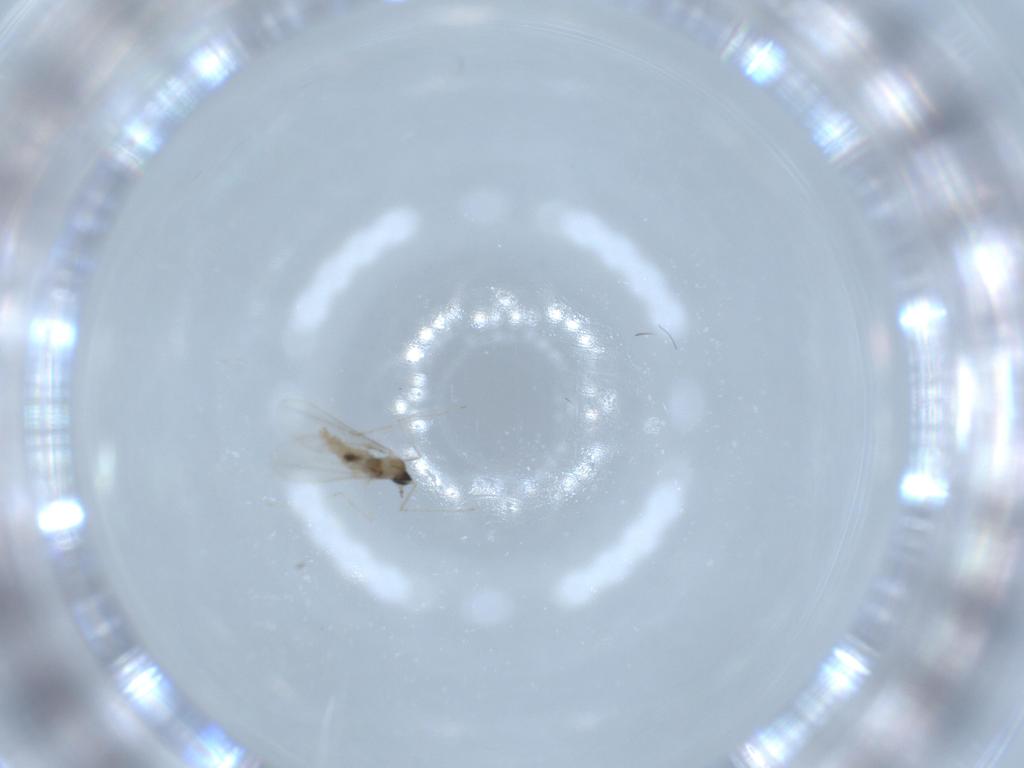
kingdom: Animalia
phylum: Arthropoda
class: Insecta
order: Diptera
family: Cecidomyiidae
